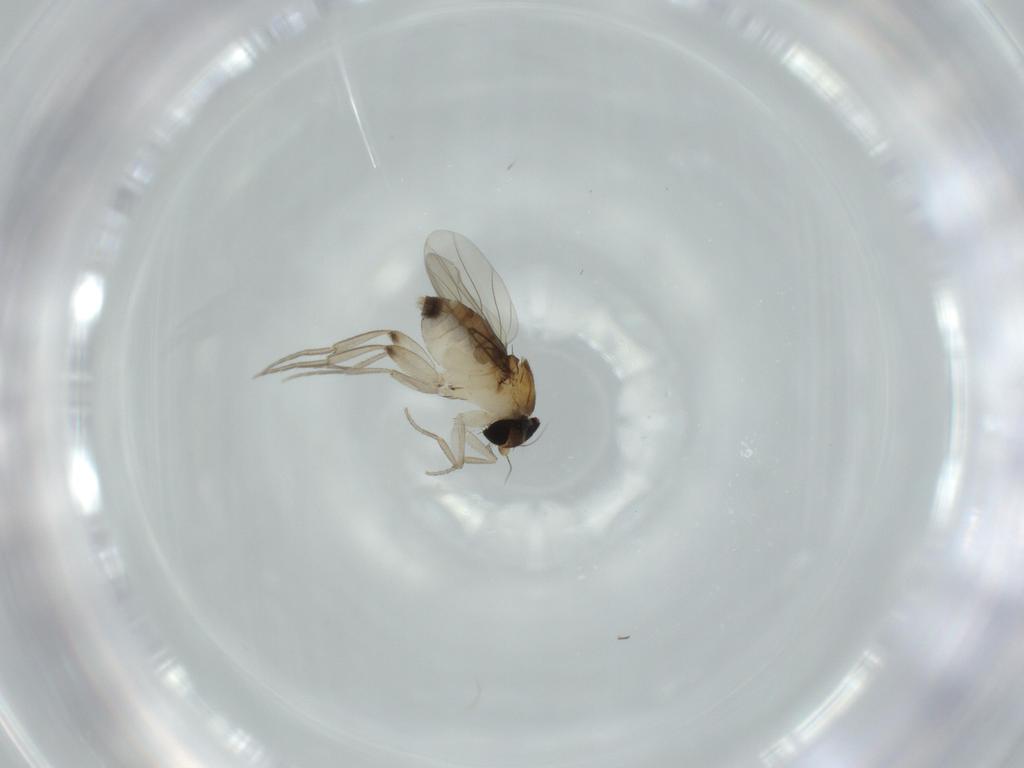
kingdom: Animalia
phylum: Arthropoda
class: Insecta
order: Diptera
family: Phoridae
